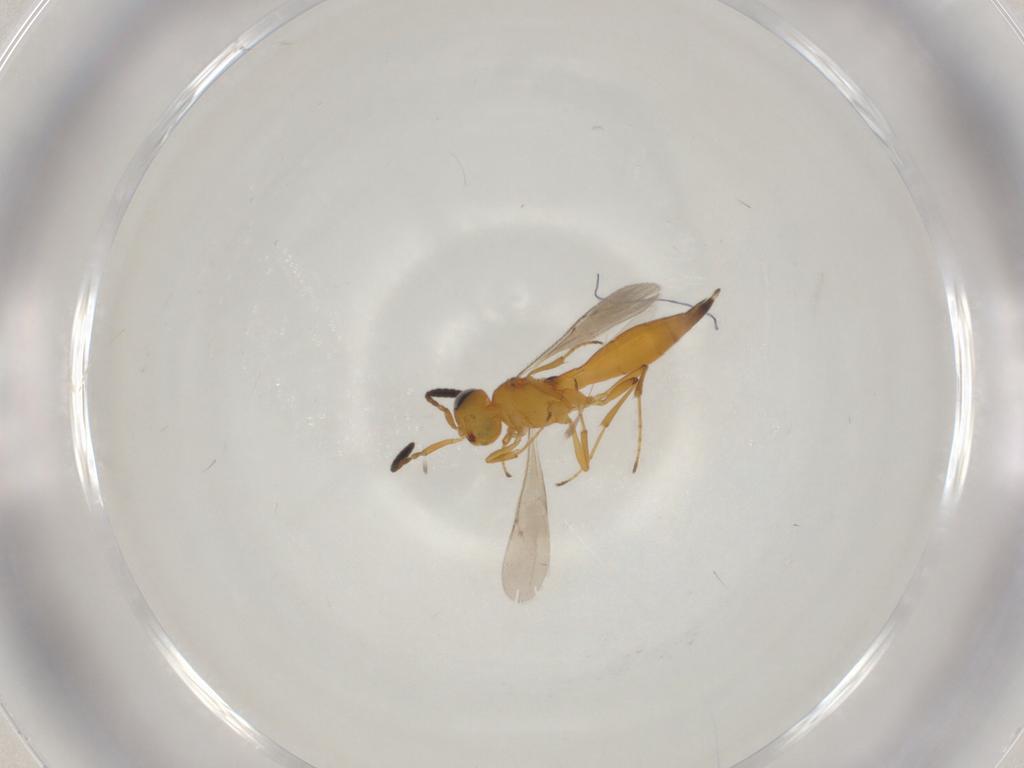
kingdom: Animalia
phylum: Arthropoda
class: Insecta
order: Hymenoptera
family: Scelionidae
